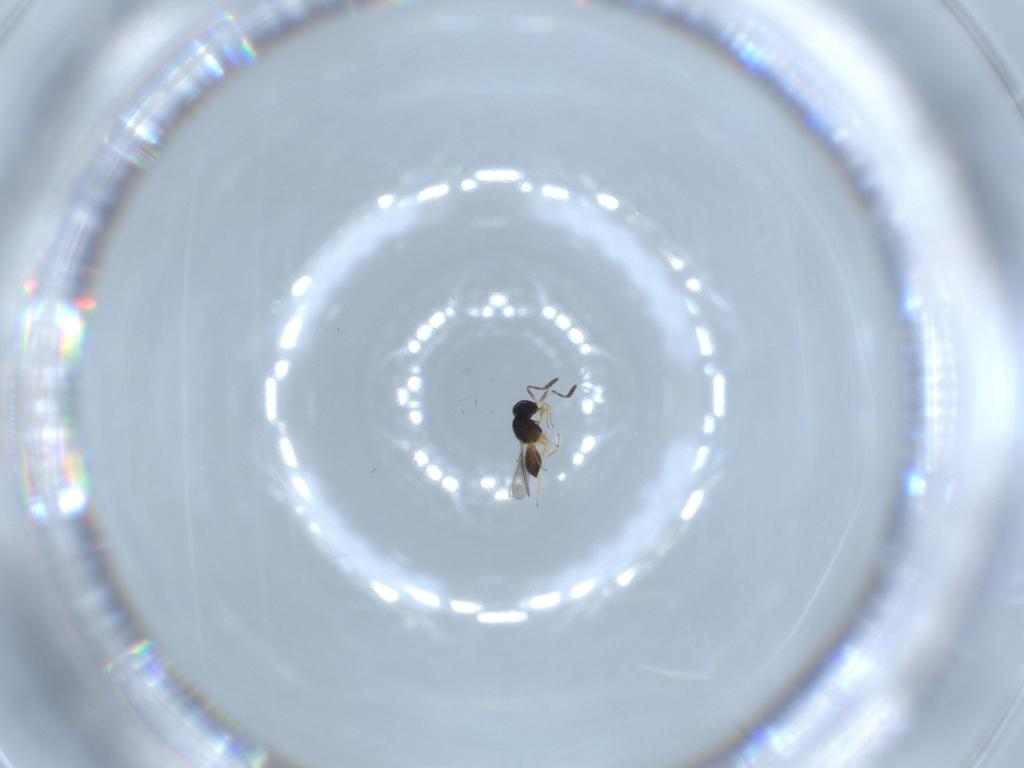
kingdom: Animalia
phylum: Arthropoda
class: Insecta
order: Hymenoptera
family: Scelionidae
